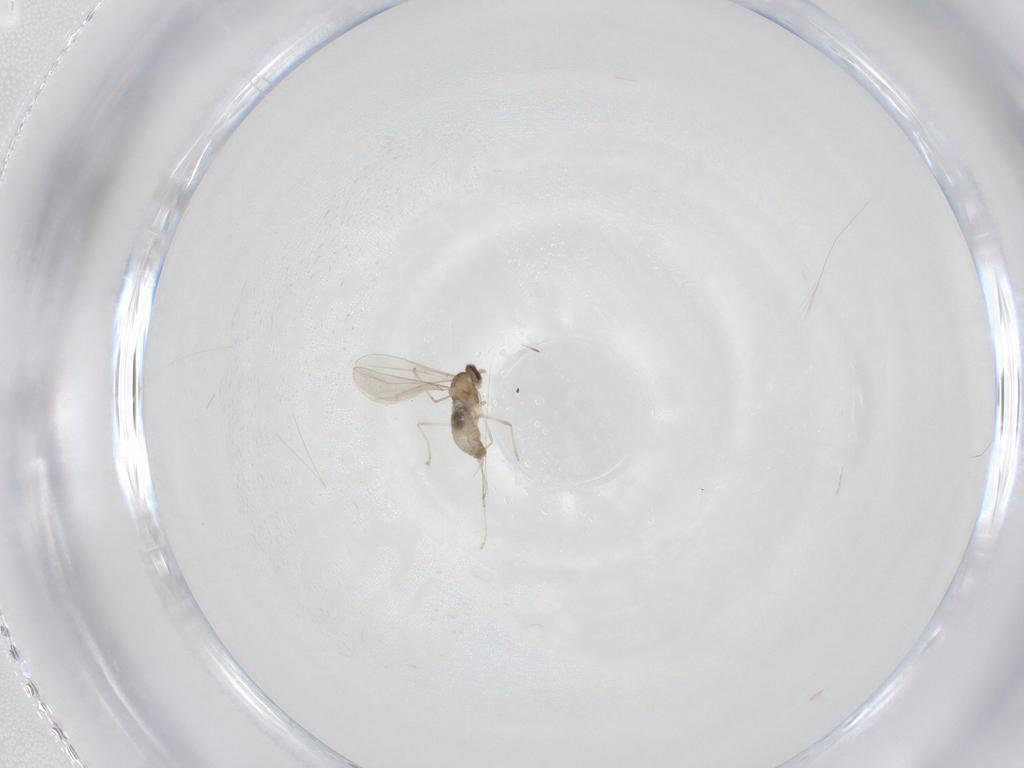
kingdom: Animalia
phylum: Arthropoda
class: Insecta
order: Diptera
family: Cecidomyiidae
